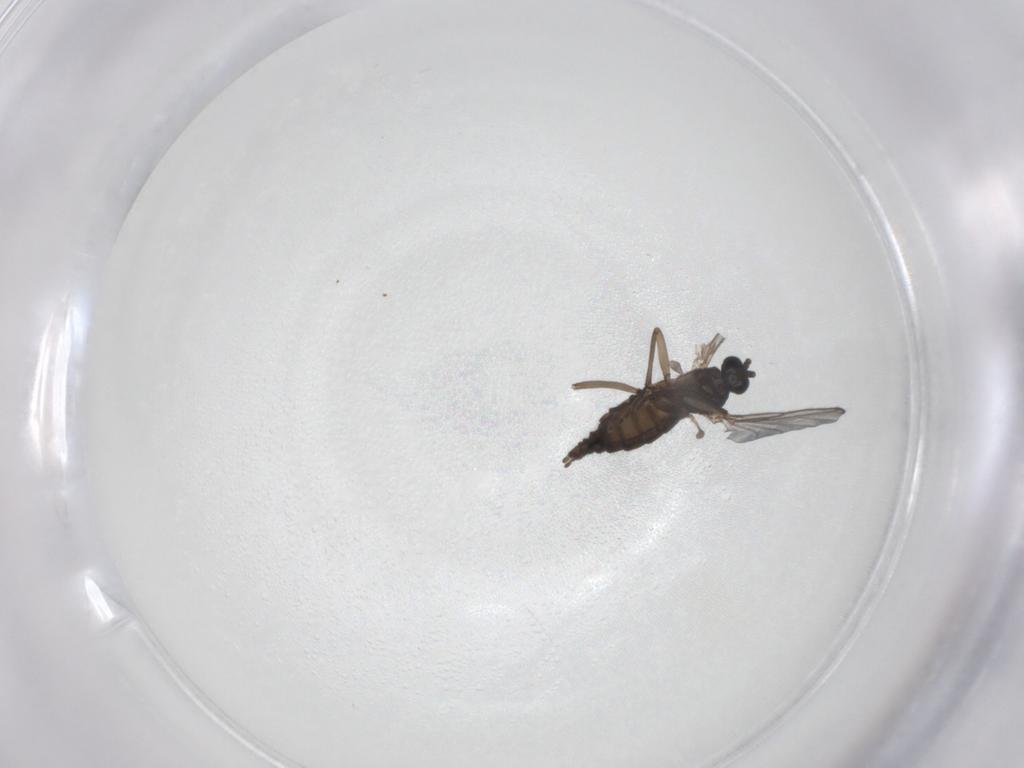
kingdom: Animalia
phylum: Arthropoda
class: Insecta
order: Diptera
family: Sciaridae
